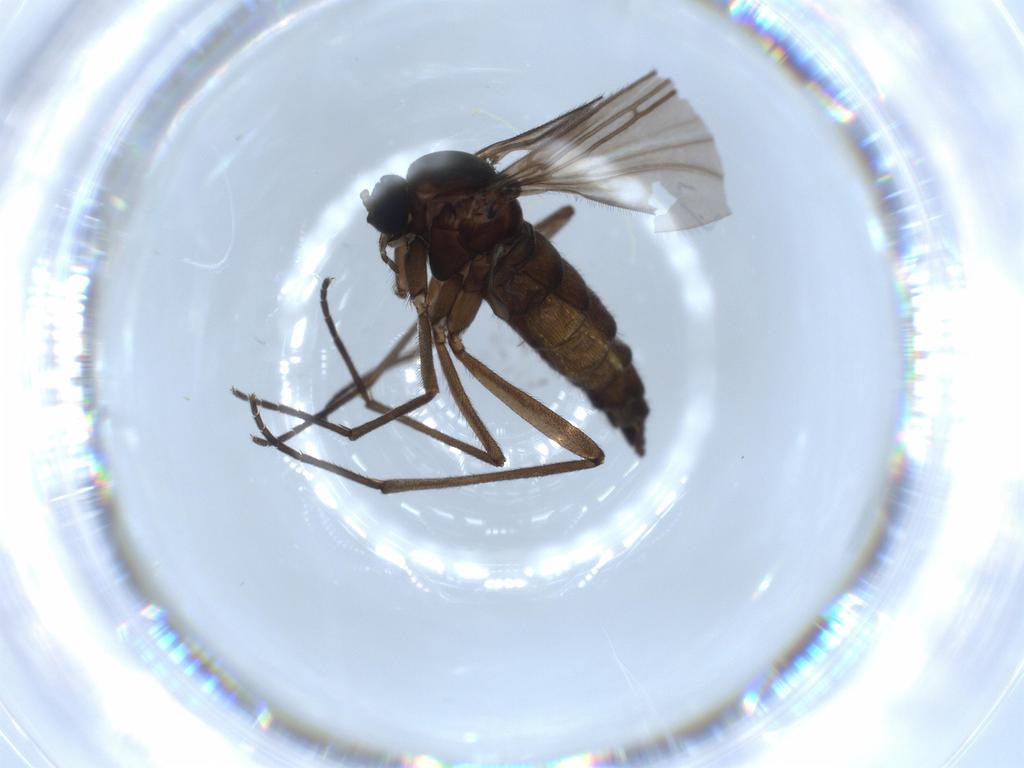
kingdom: Animalia
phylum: Arthropoda
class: Insecta
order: Diptera
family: Sciaridae
